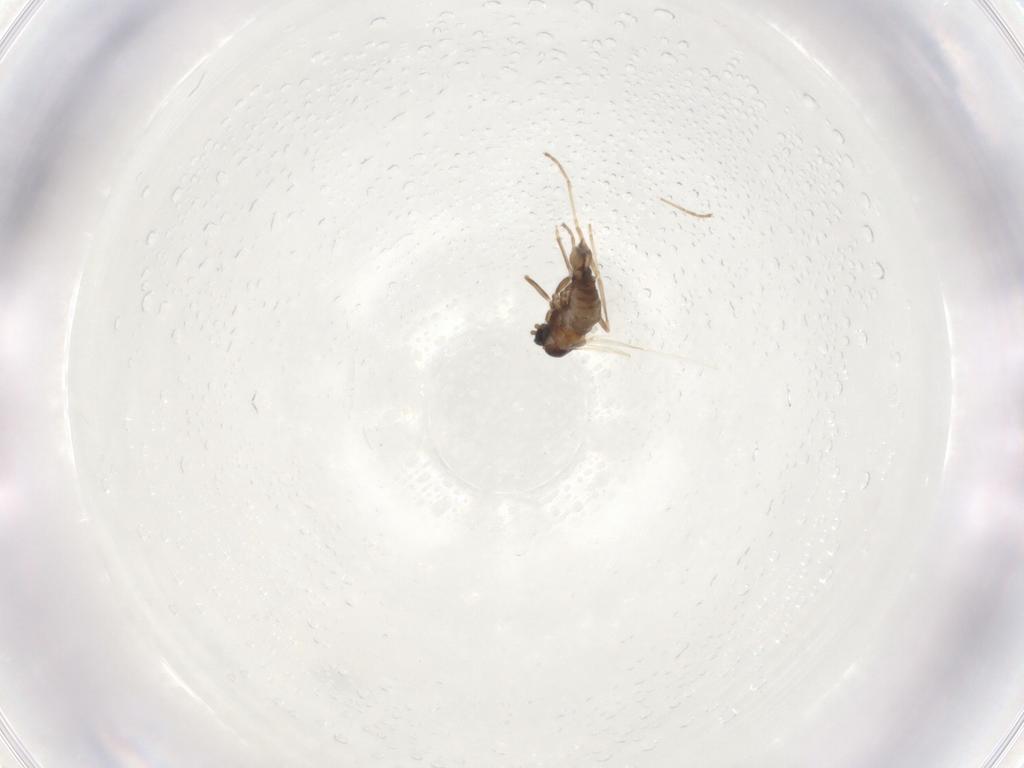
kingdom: Animalia
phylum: Arthropoda
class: Insecta
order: Diptera
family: Cecidomyiidae
